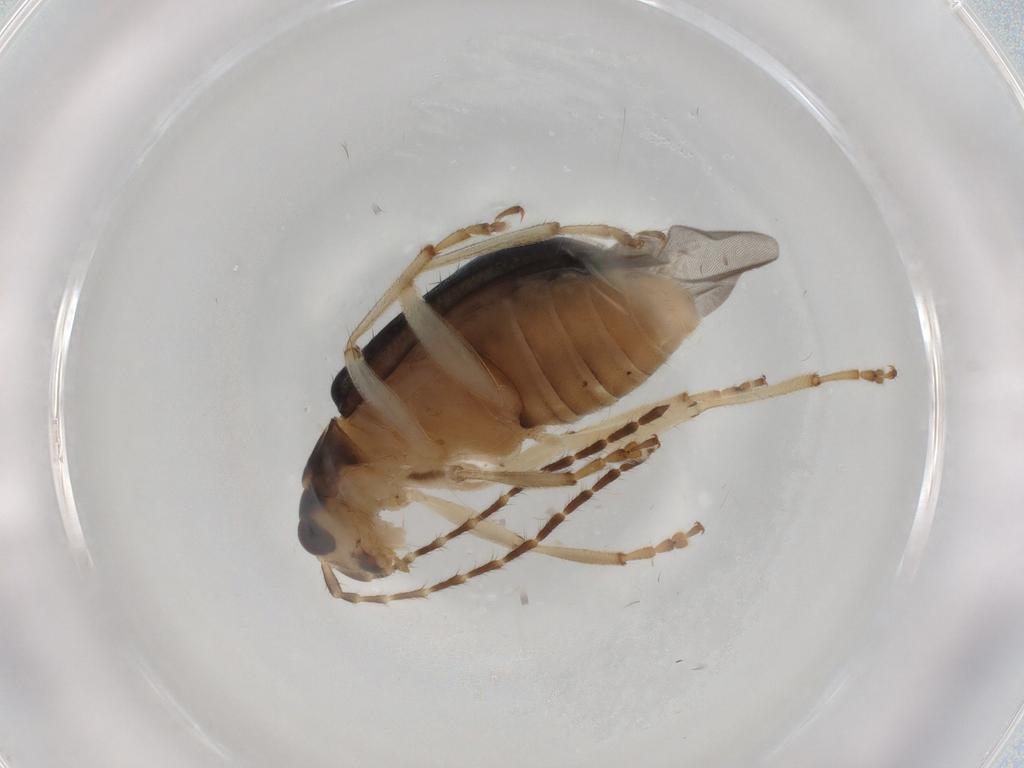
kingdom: Animalia
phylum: Arthropoda
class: Insecta
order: Coleoptera
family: Chrysomelidae
